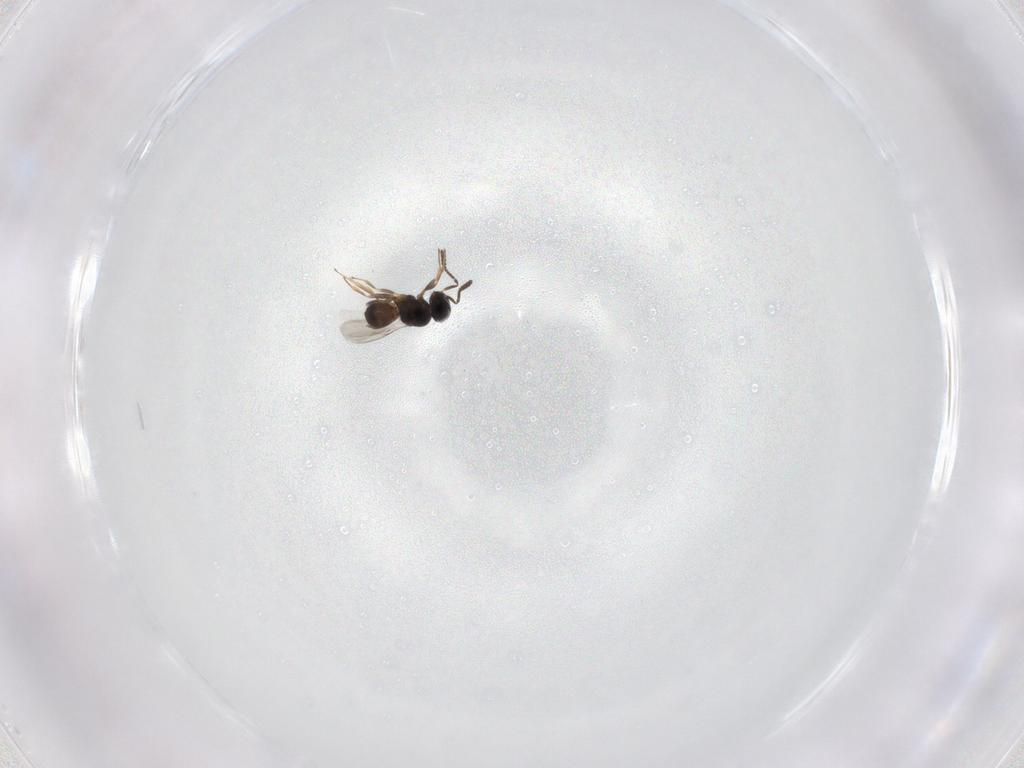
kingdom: Animalia
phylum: Arthropoda
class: Insecta
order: Hymenoptera
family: Scelionidae
